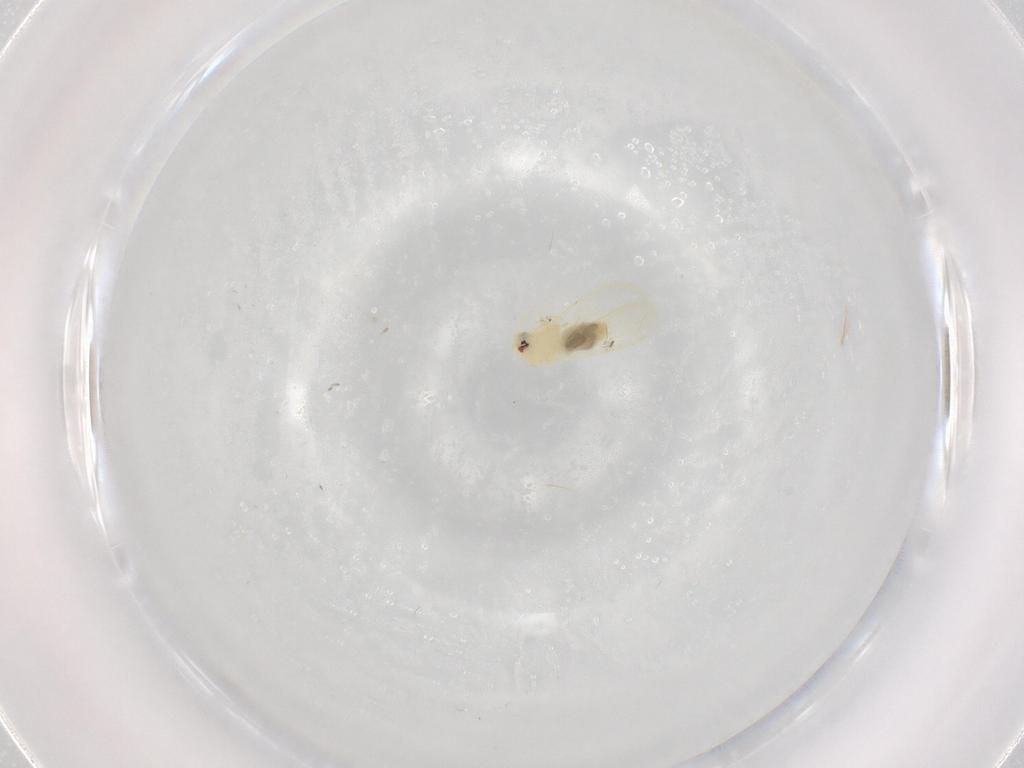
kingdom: Animalia
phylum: Arthropoda
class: Insecta
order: Hemiptera
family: Aleyrodidae
